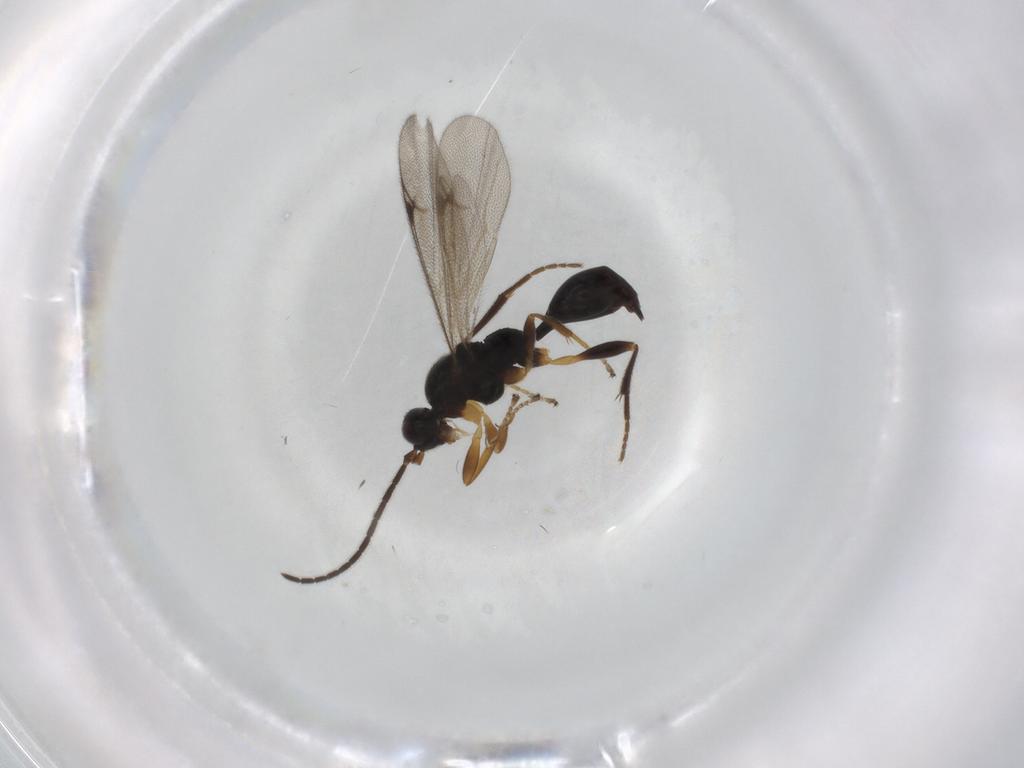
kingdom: Animalia
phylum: Arthropoda
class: Insecta
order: Hymenoptera
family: Proctotrupidae
